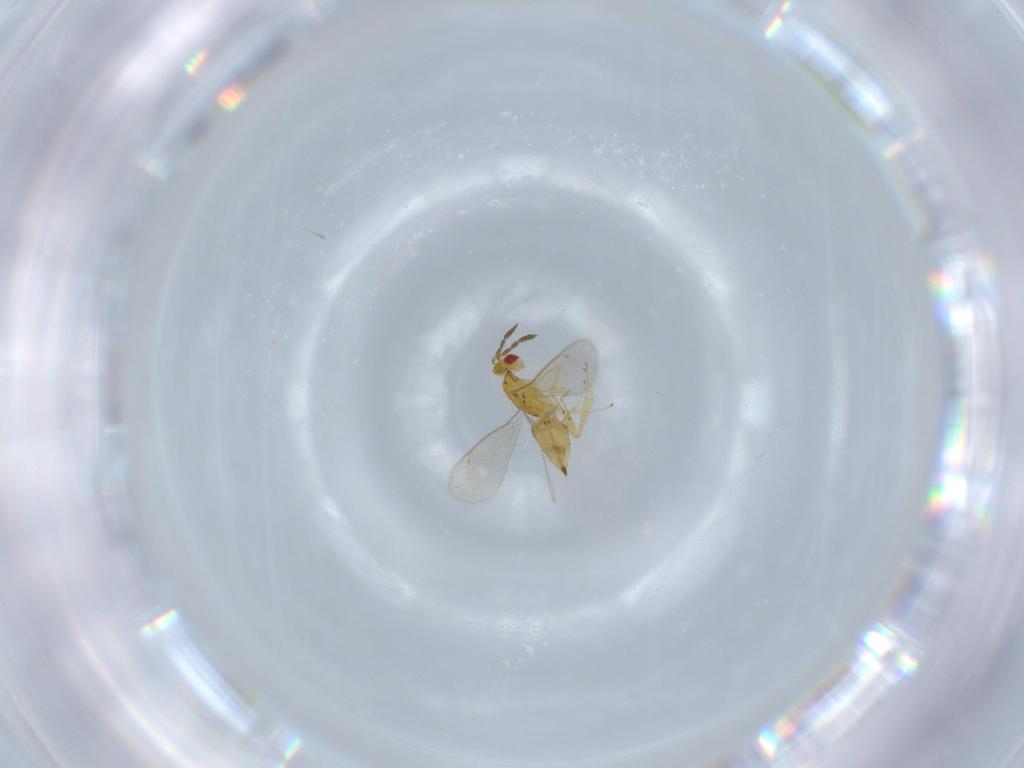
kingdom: Animalia
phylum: Arthropoda
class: Insecta
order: Hymenoptera
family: Eulophidae
